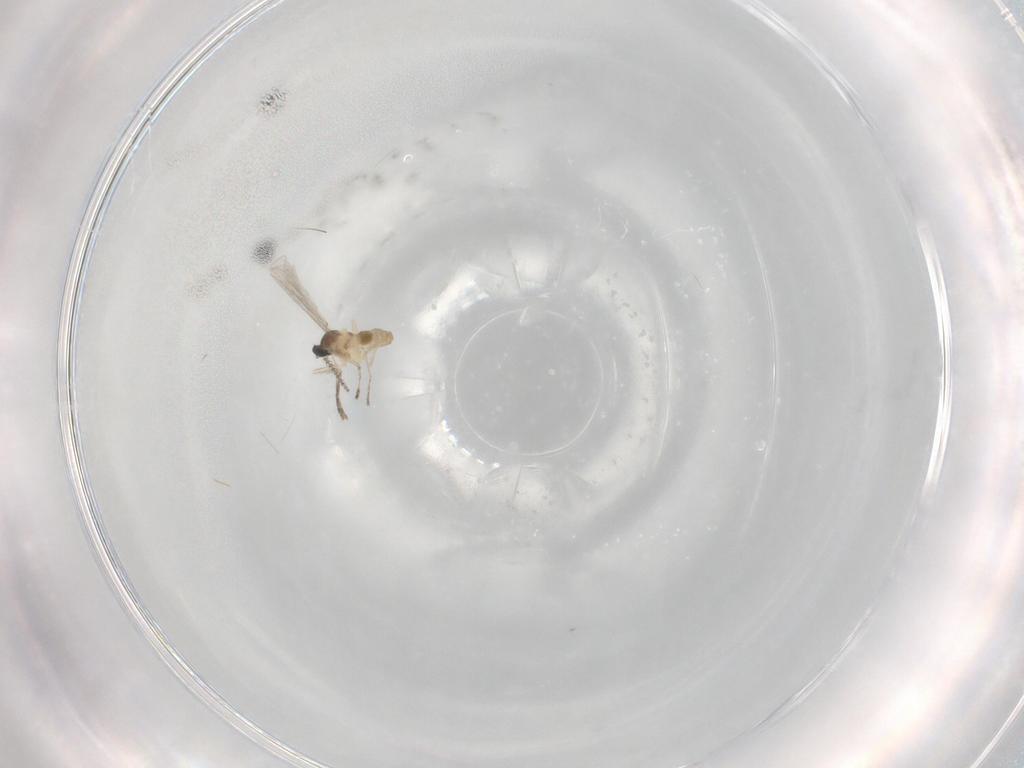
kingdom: Animalia
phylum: Arthropoda
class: Insecta
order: Diptera
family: Cecidomyiidae
